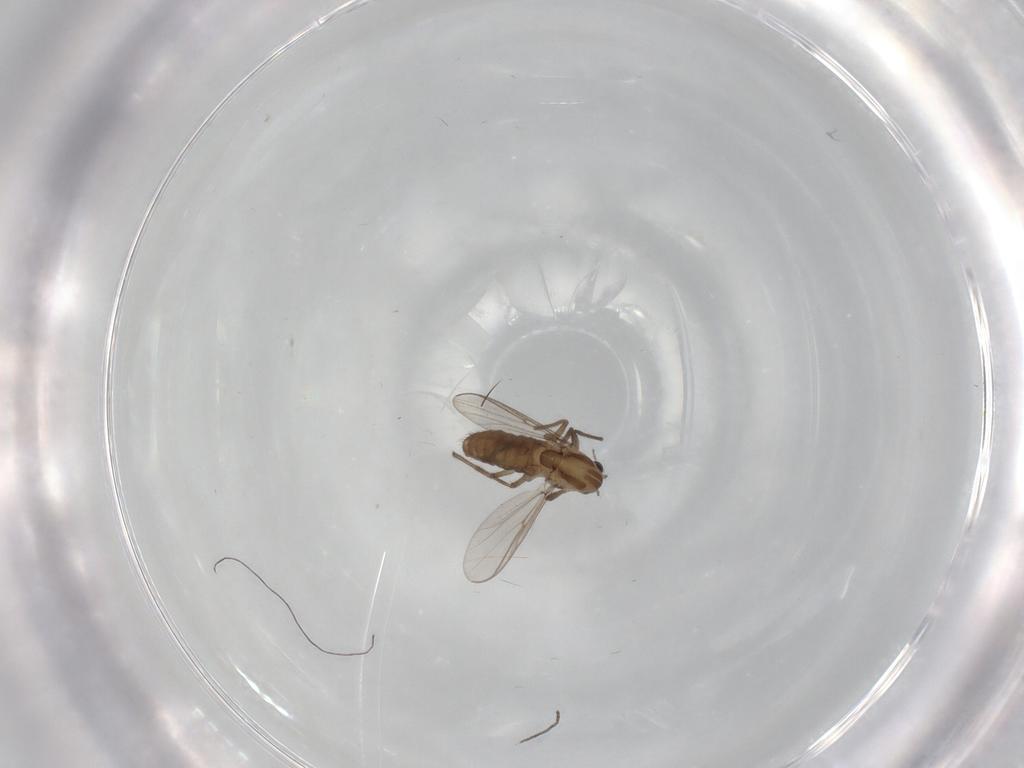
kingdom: Animalia
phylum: Arthropoda
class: Insecta
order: Diptera
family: Chironomidae
